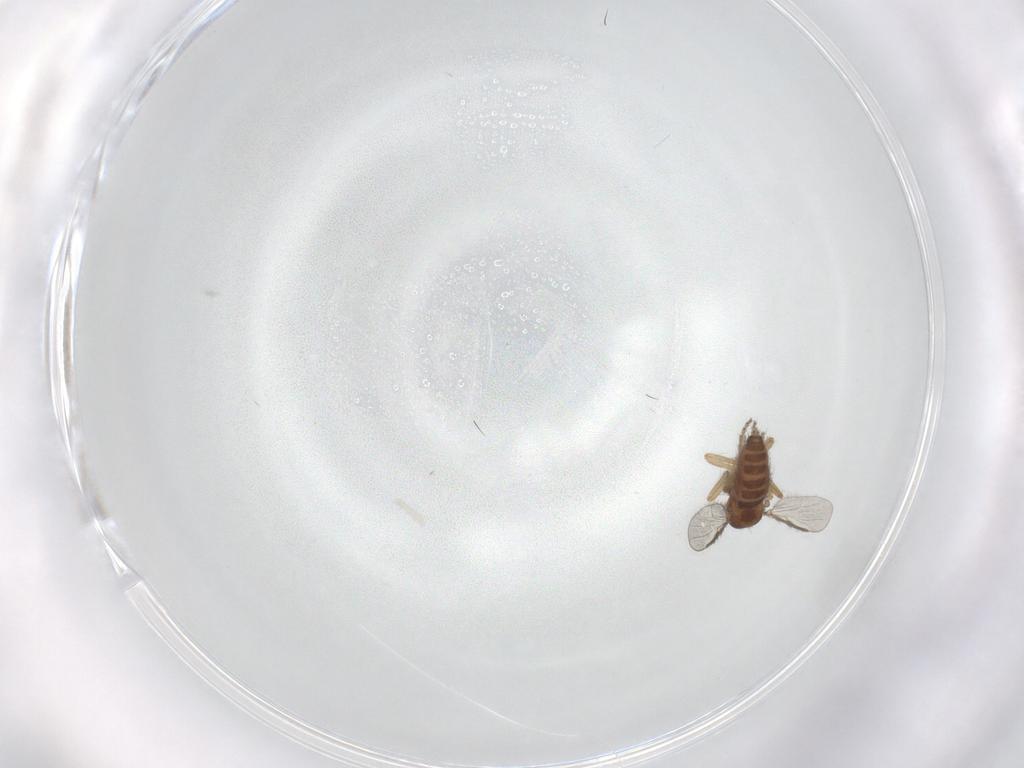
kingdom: Animalia
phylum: Arthropoda
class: Insecta
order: Diptera
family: Ceratopogonidae
